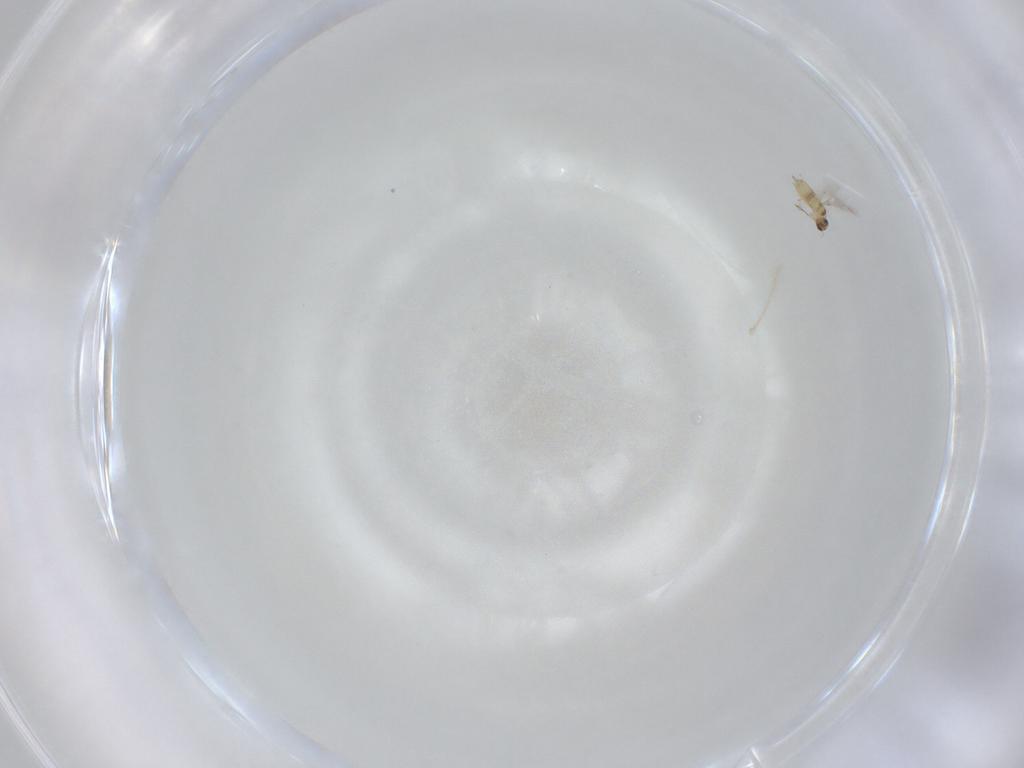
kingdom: Animalia
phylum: Arthropoda
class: Insecta
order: Hymenoptera
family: Mymaridae
